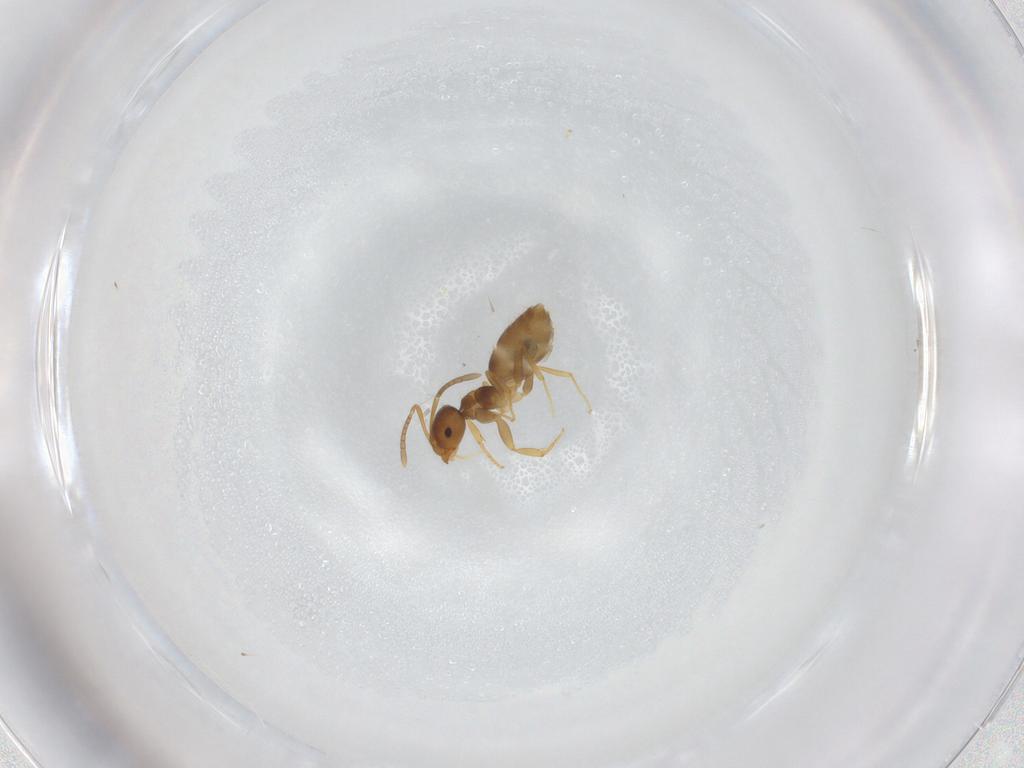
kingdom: Animalia
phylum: Arthropoda
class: Insecta
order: Hymenoptera
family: Formicidae
